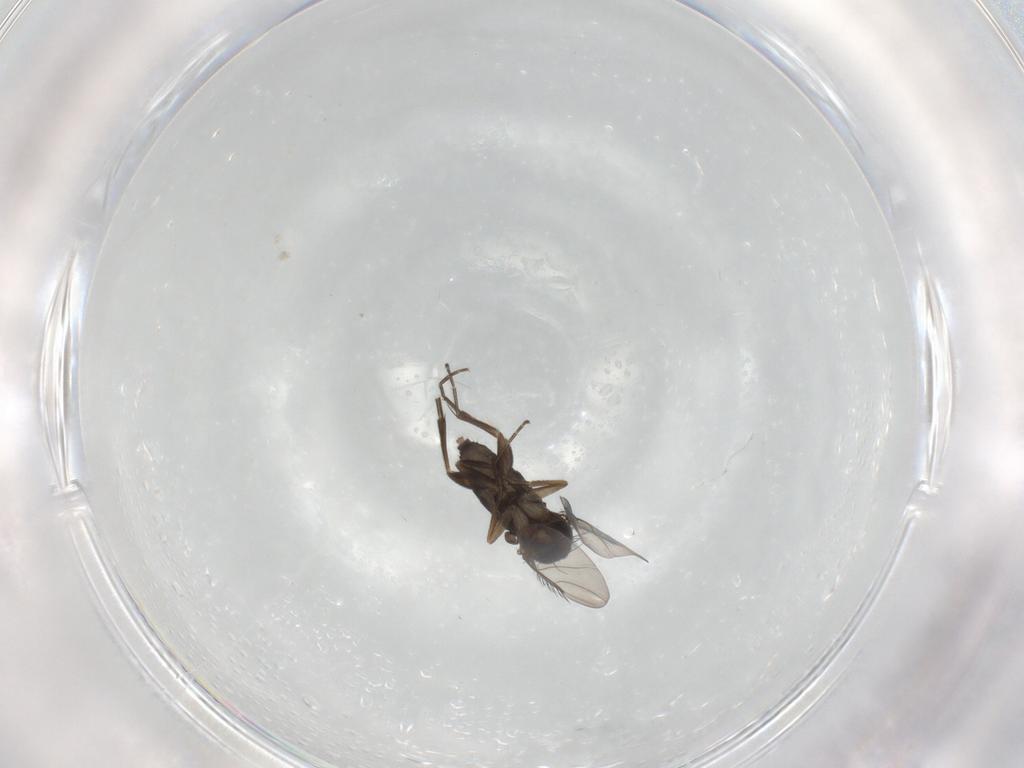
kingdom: Animalia
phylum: Arthropoda
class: Insecta
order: Diptera
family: Phoridae
